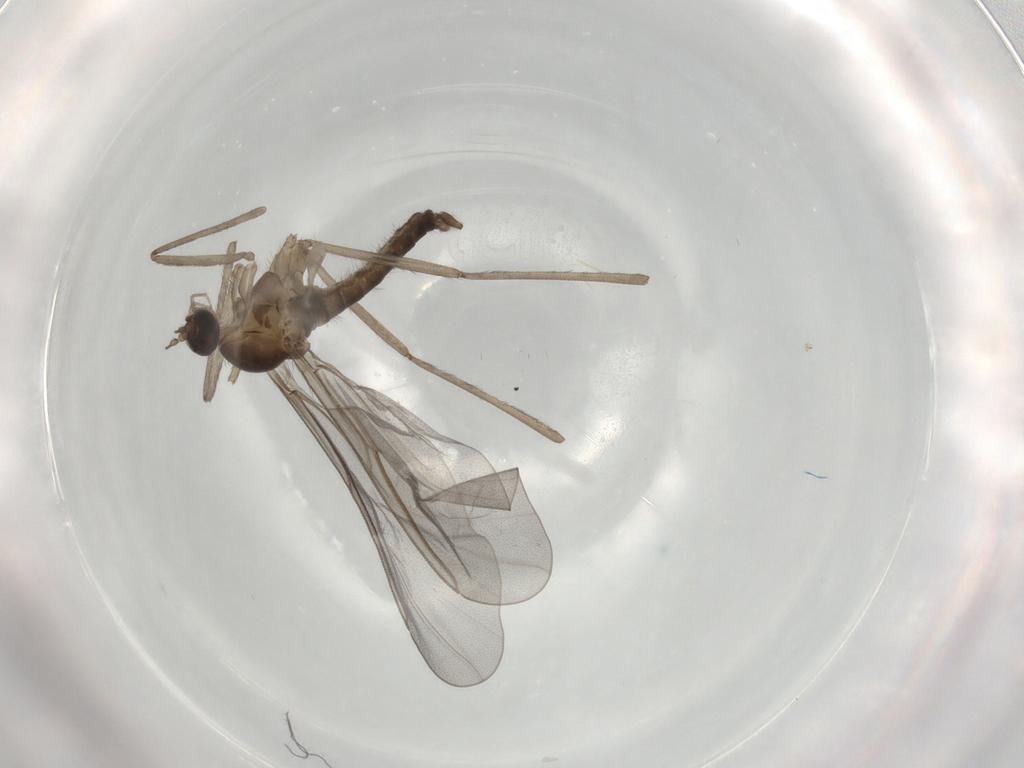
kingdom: Animalia
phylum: Arthropoda
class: Insecta
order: Diptera
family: Cecidomyiidae
